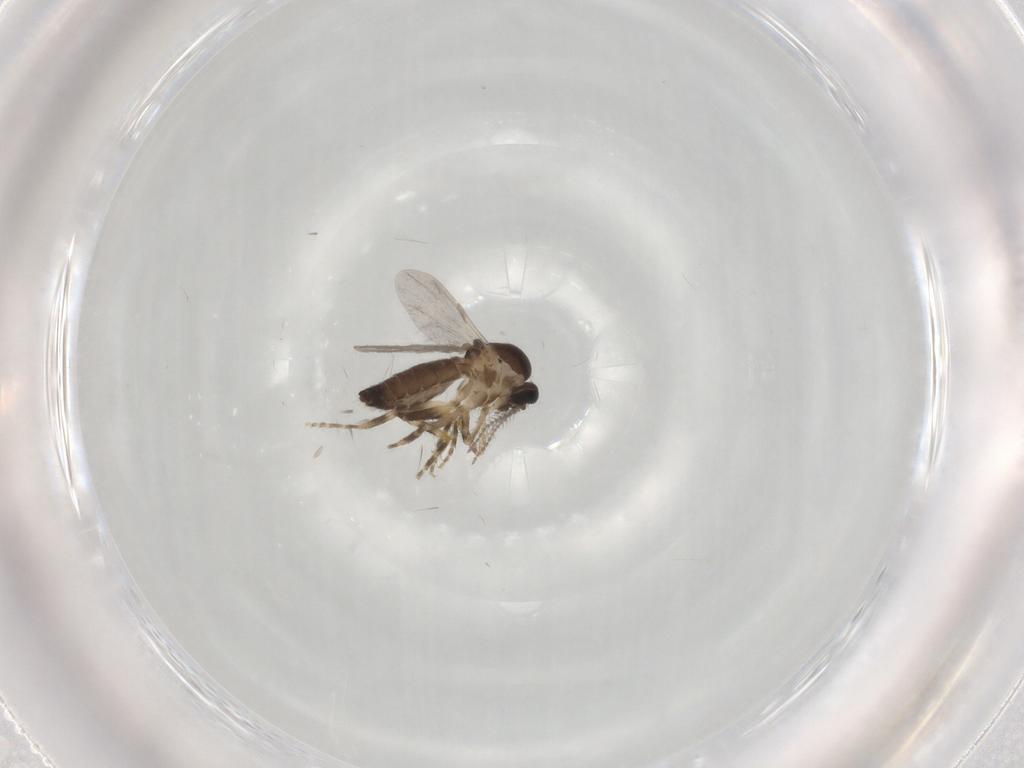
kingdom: Animalia
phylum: Arthropoda
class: Insecta
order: Diptera
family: Ceratopogonidae
